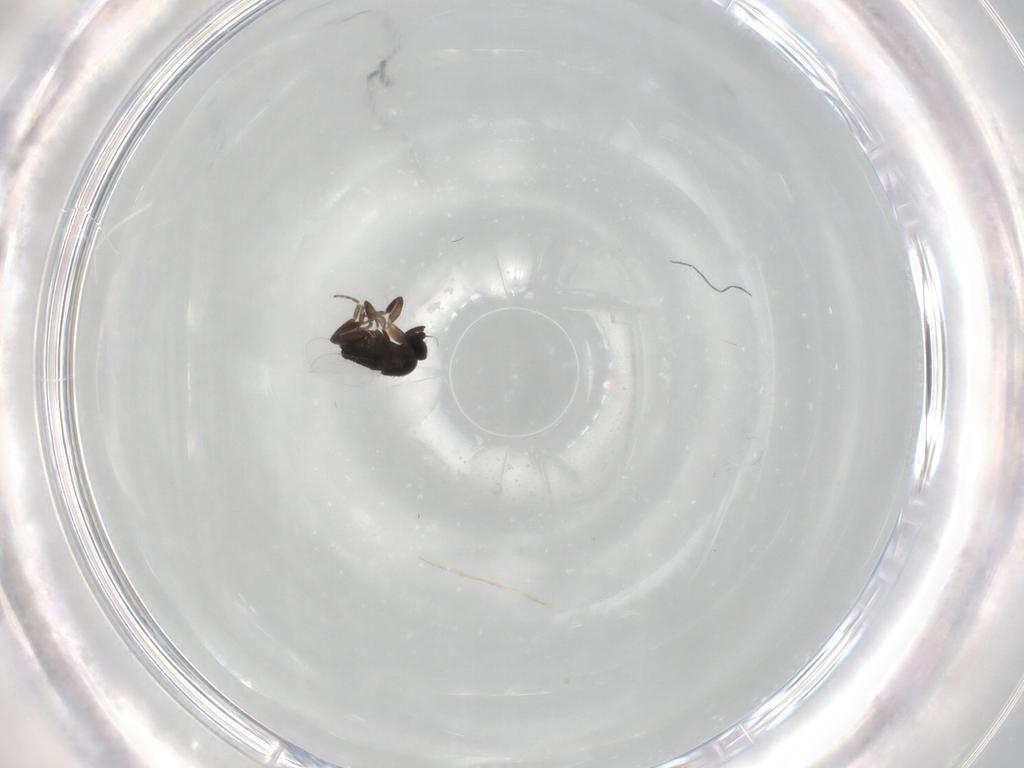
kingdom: Animalia
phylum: Arthropoda
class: Insecta
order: Diptera
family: Phoridae
